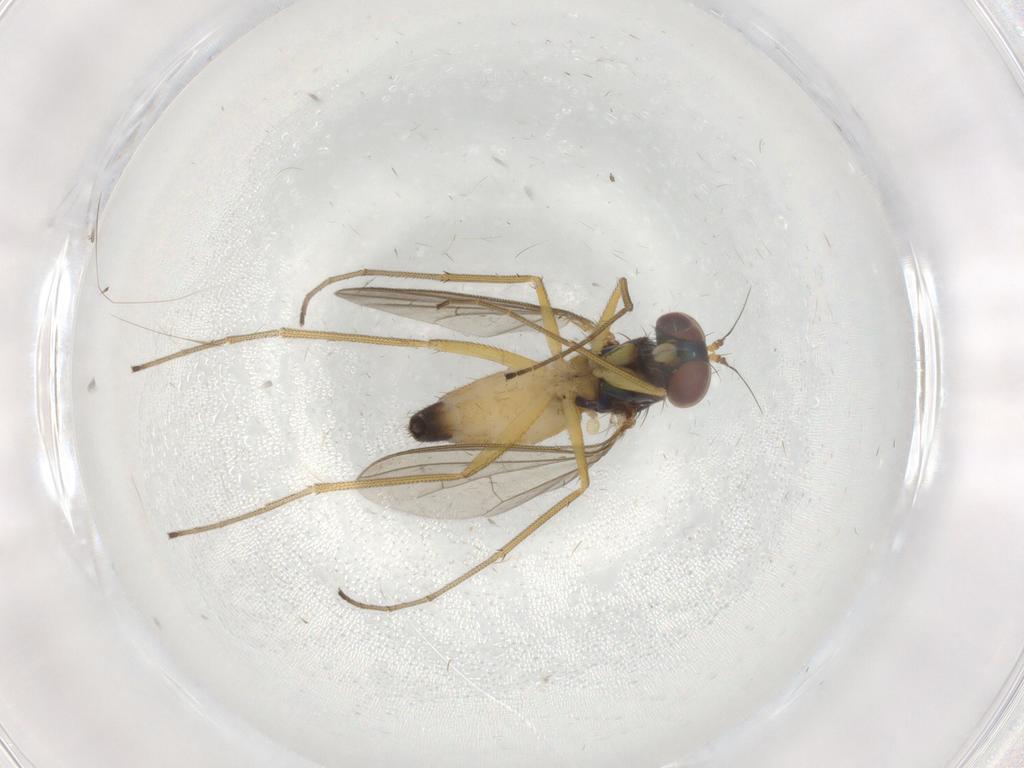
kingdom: Animalia
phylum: Arthropoda
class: Insecta
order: Diptera
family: Dolichopodidae
